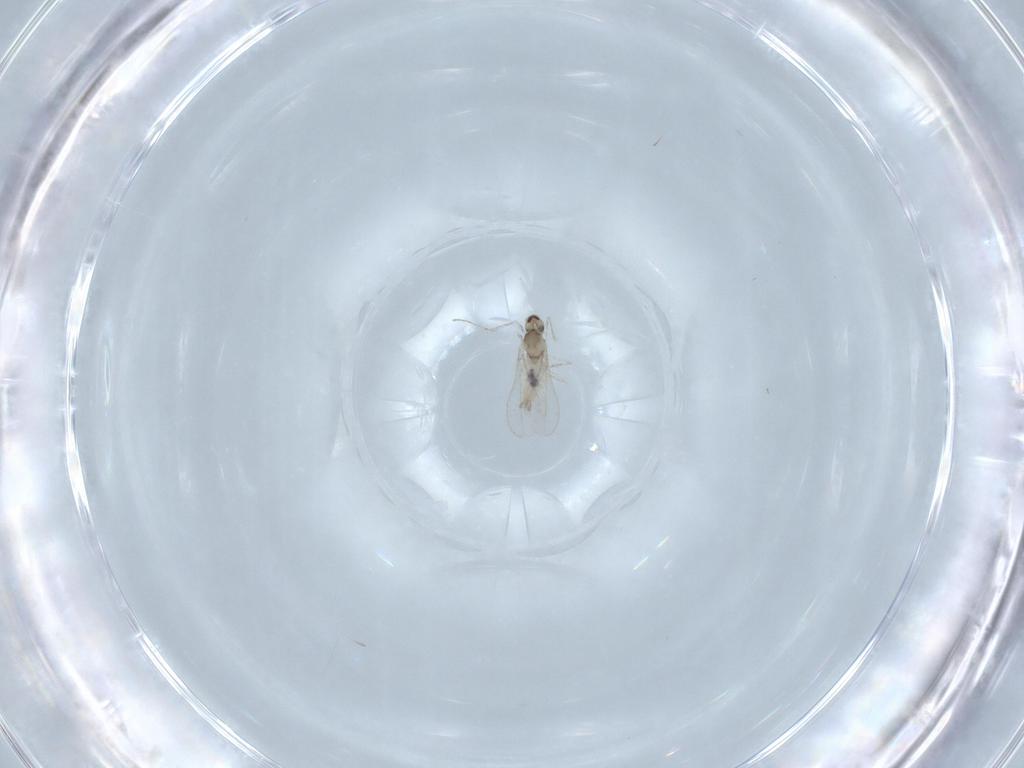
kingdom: Animalia
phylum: Arthropoda
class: Insecta
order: Diptera
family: Cecidomyiidae
